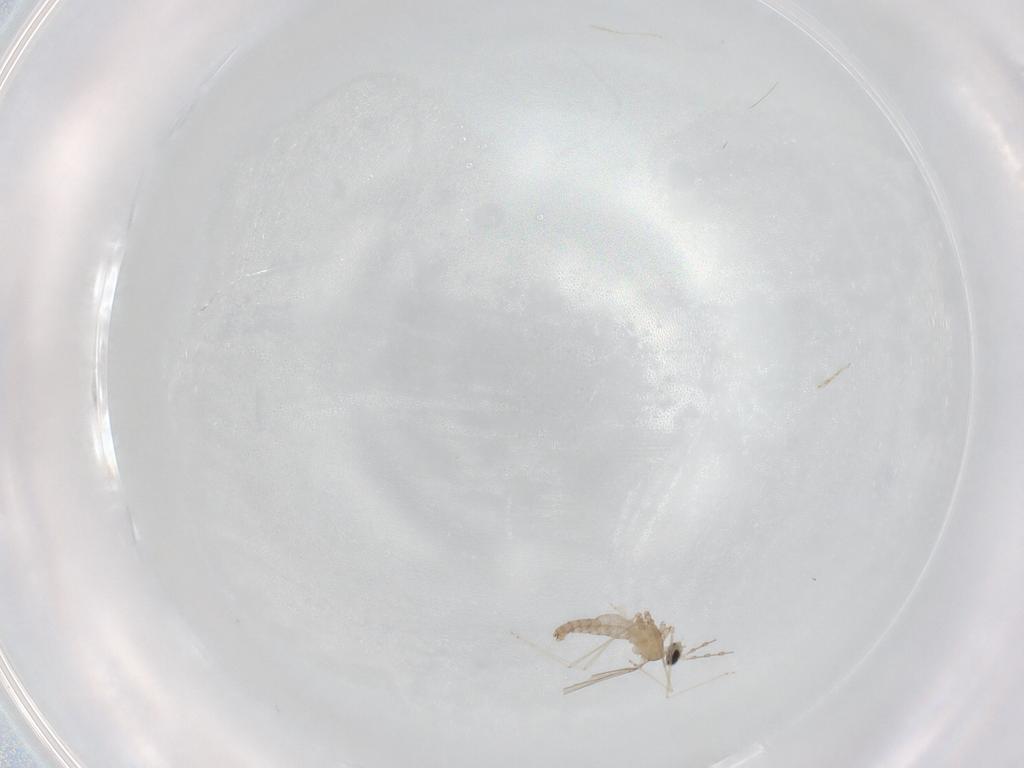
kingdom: Animalia
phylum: Arthropoda
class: Insecta
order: Diptera
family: Cecidomyiidae
